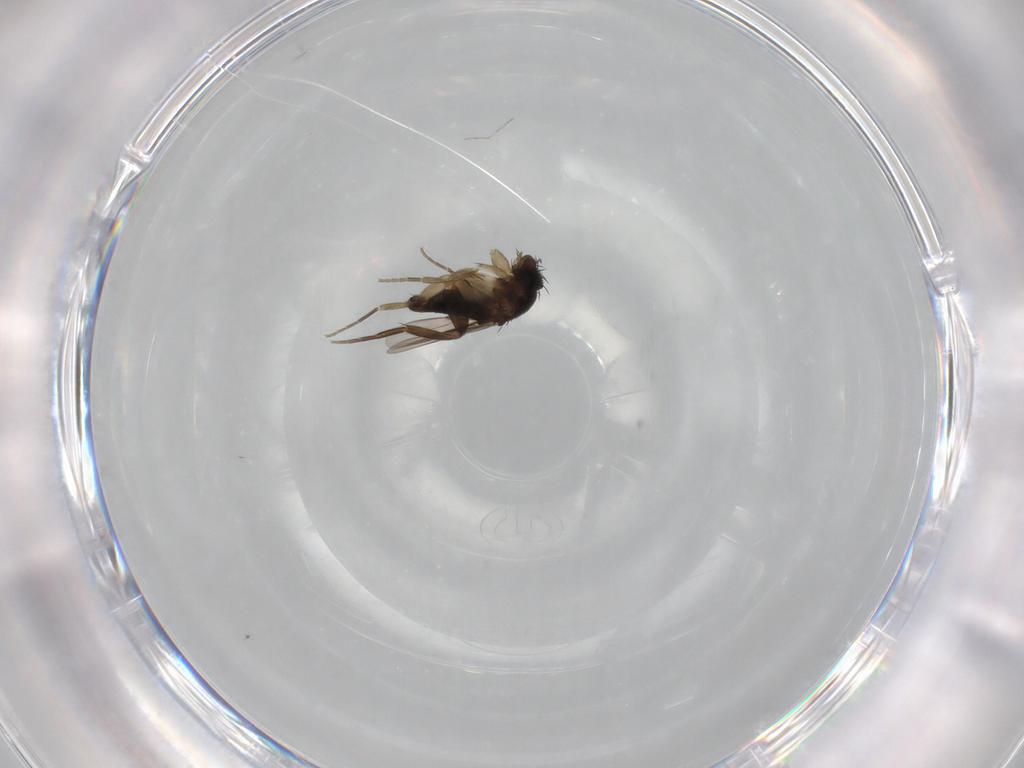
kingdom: Animalia
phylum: Arthropoda
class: Insecta
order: Diptera
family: Phoridae
